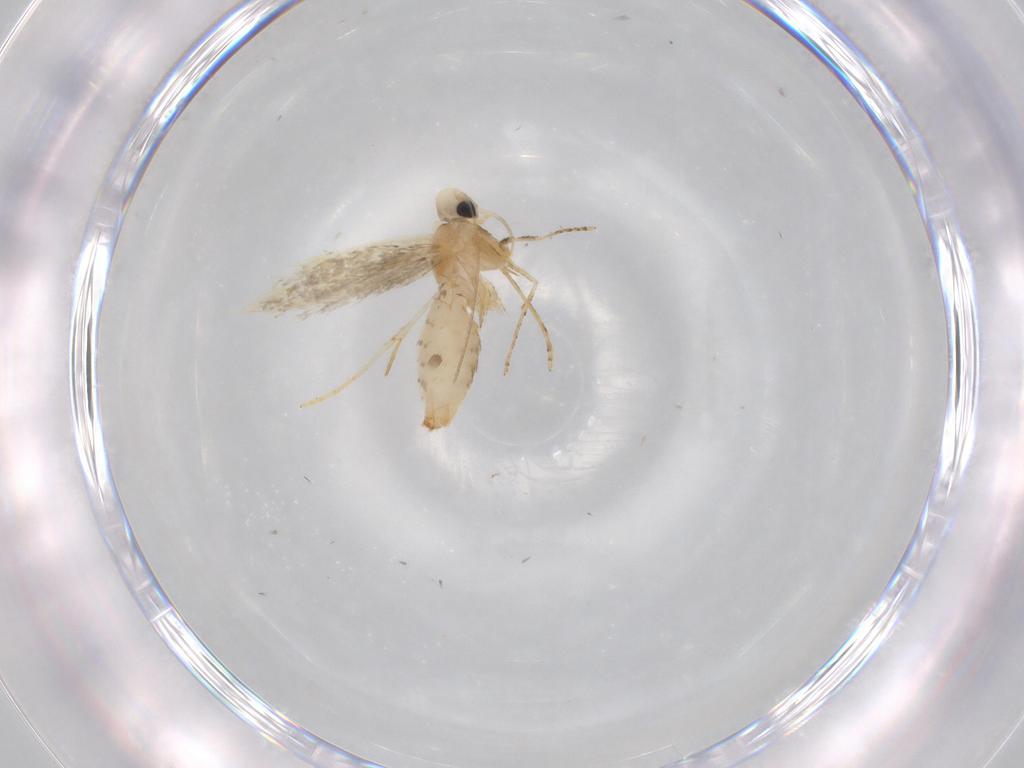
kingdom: Animalia
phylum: Arthropoda
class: Insecta
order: Lepidoptera
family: Tischeriidae
